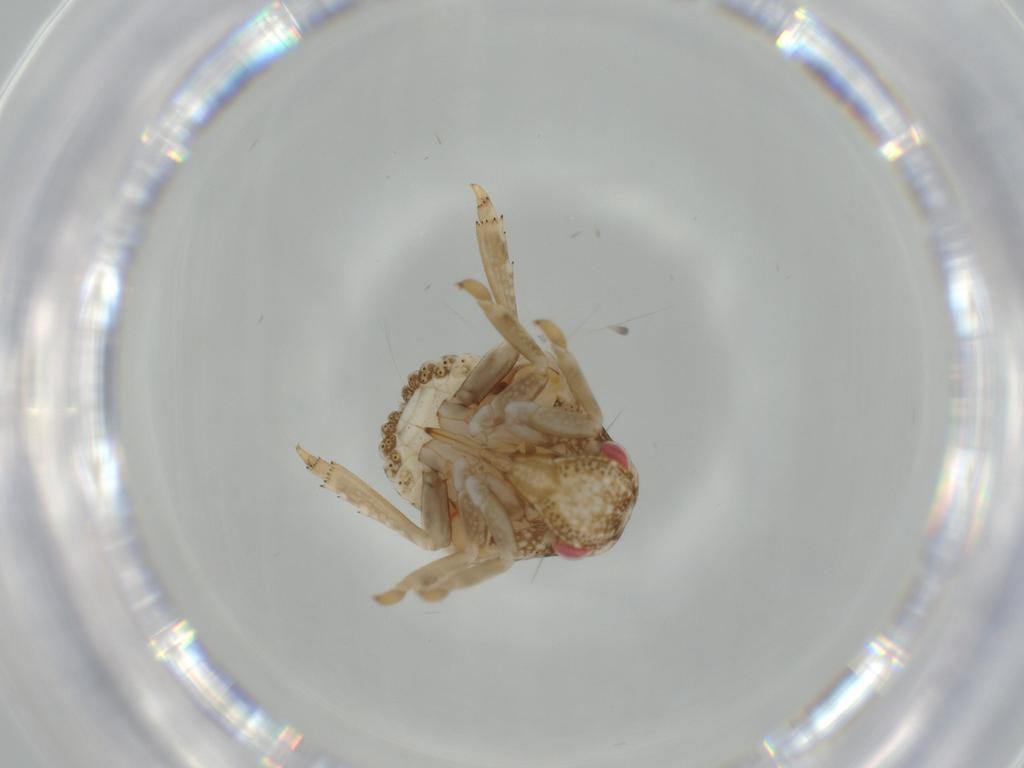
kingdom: Animalia
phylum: Arthropoda
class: Insecta
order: Hemiptera
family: Acanaloniidae
